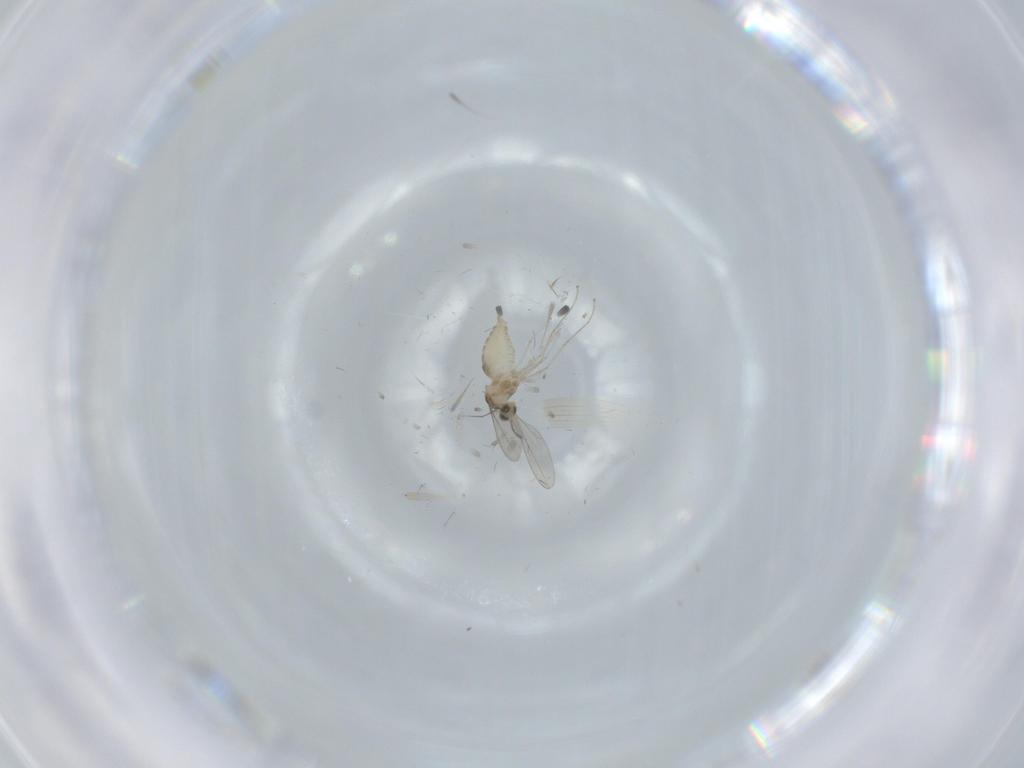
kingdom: Animalia
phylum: Arthropoda
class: Insecta
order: Diptera
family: Cecidomyiidae
